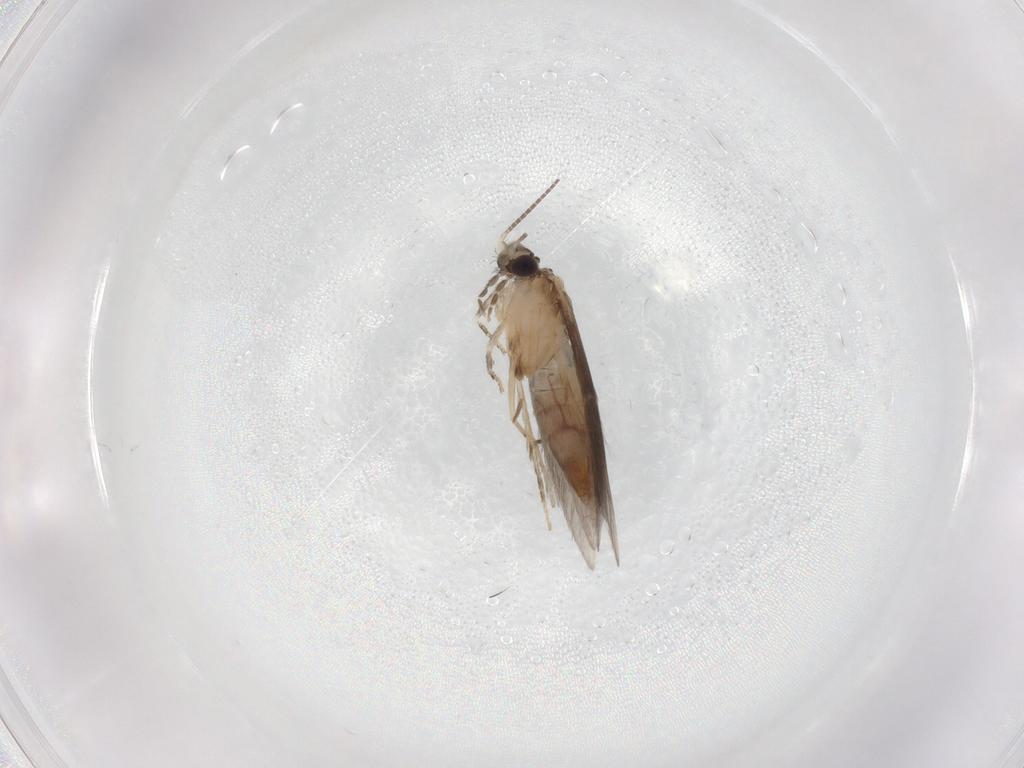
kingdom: Animalia
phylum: Arthropoda
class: Insecta
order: Trichoptera
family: Hydroptilidae
